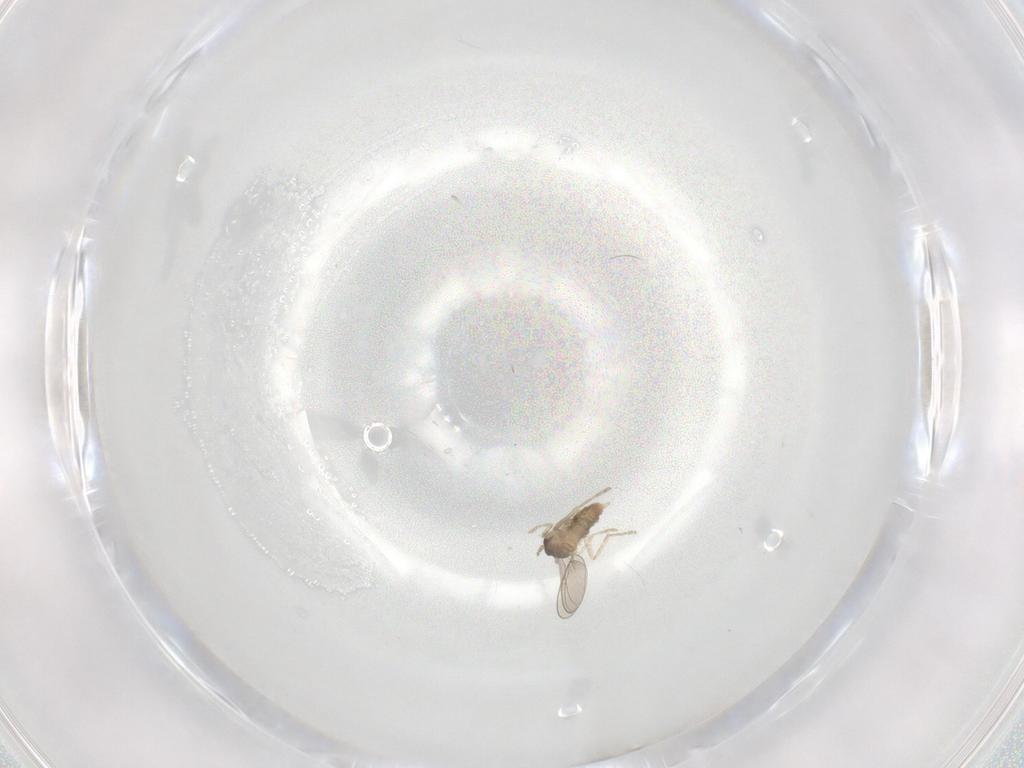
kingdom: Animalia
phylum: Arthropoda
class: Insecta
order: Diptera
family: Cecidomyiidae
